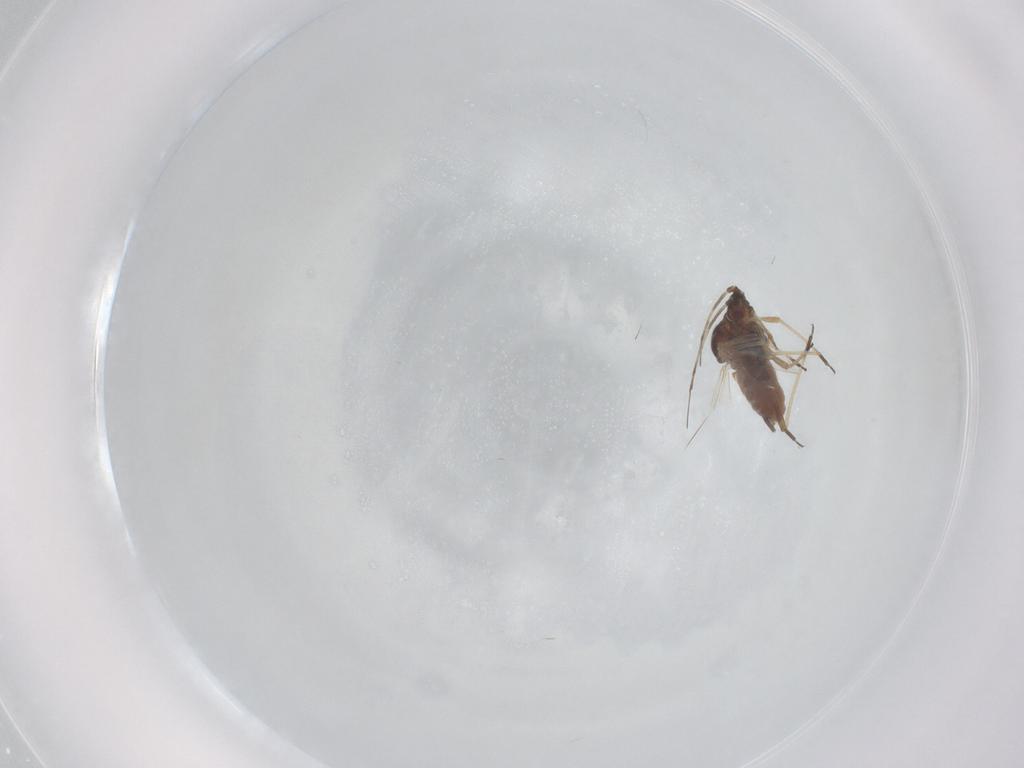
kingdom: Animalia
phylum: Arthropoda
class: Insecta
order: Hemiptera
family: Aphididae
